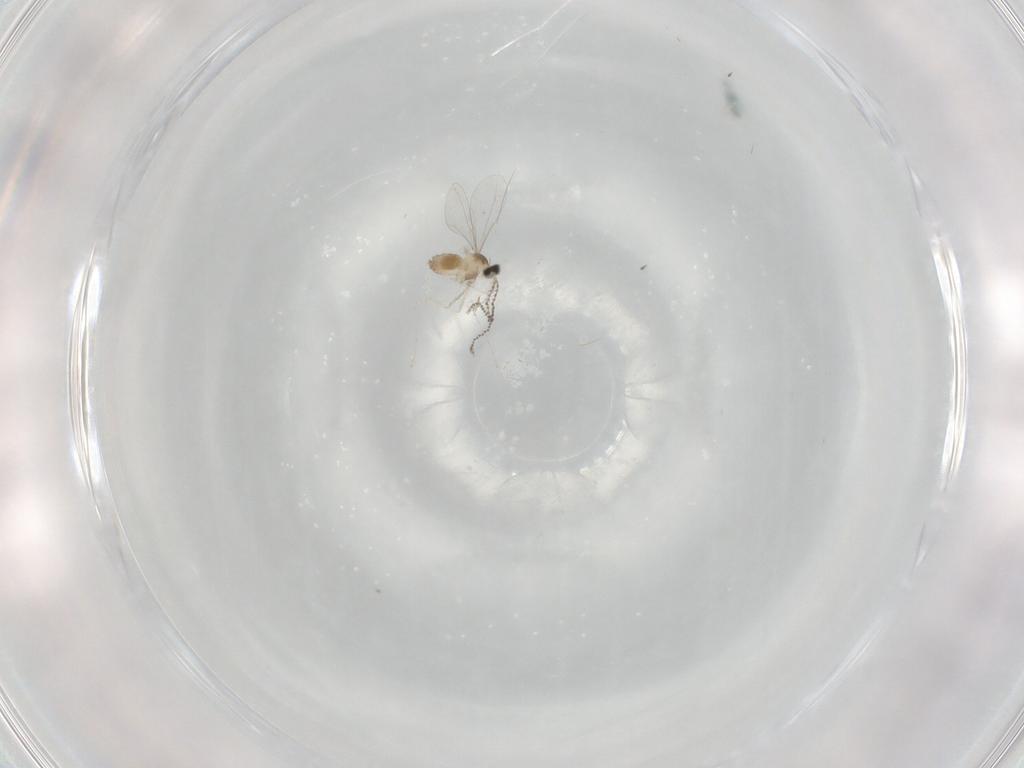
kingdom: Animalia
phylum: Arthropoda
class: Insecta
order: Diptera
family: Cecidomyiidae
